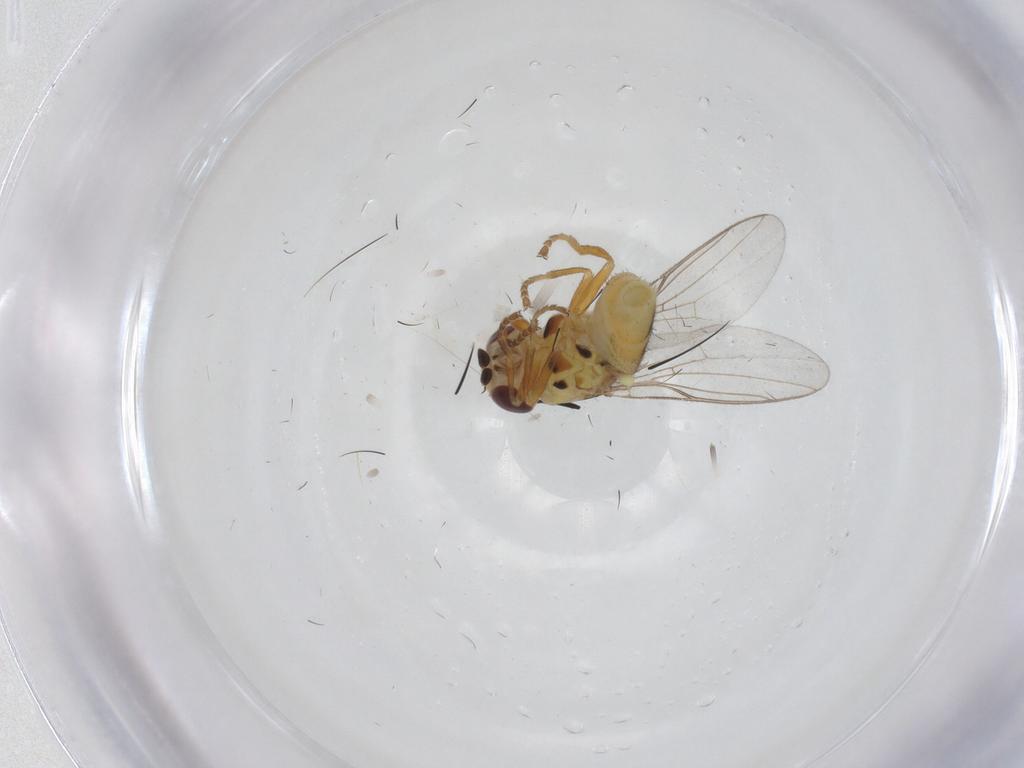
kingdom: Animalia
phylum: Arthropoda
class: Insecta
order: Diptera
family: Chloropidae
